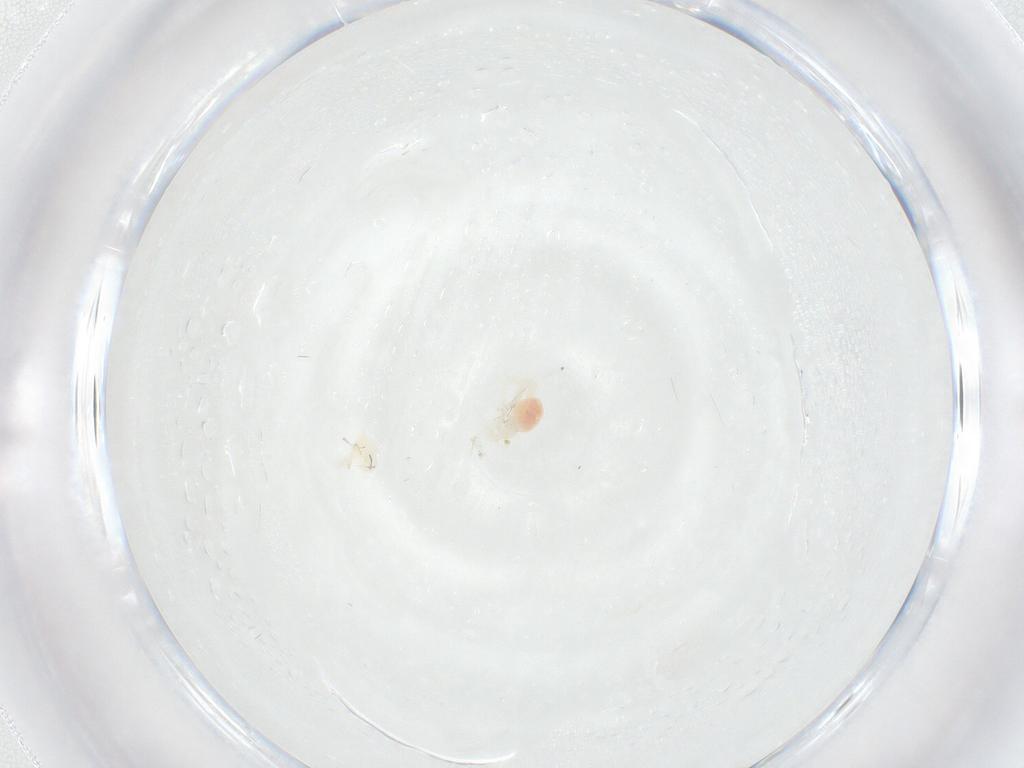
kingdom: Animalia
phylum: Arthropoda
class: Arachnida
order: Trombidiformes
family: Anystidae
